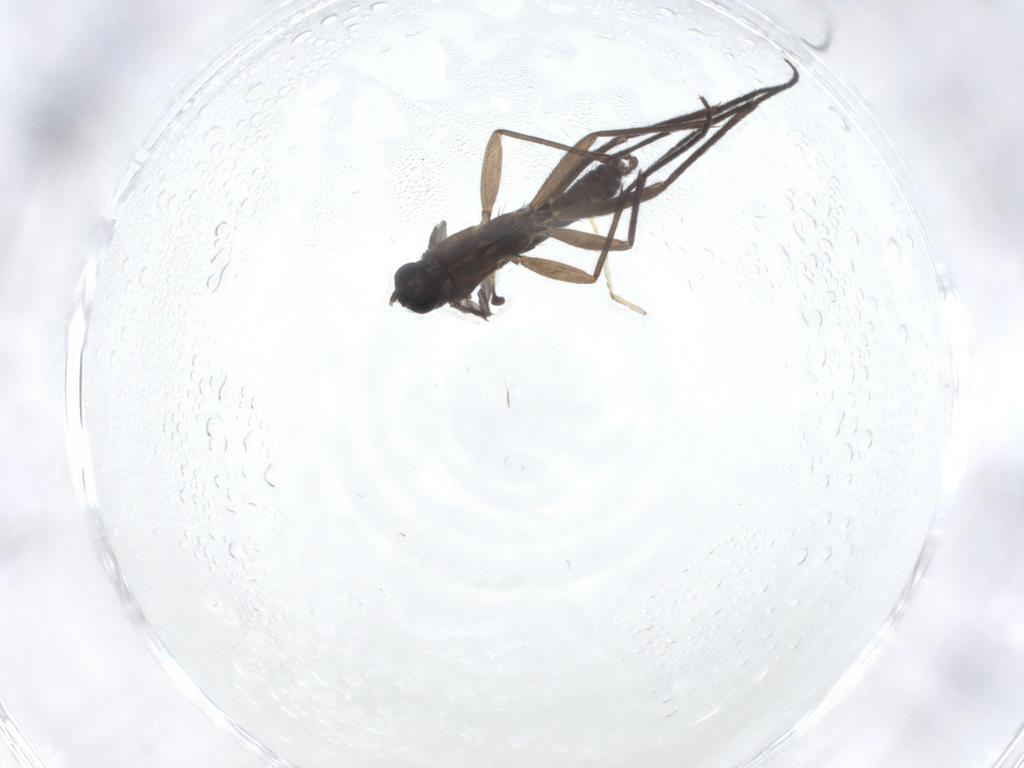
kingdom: Animalia
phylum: Arthropoda
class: Insecta
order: Diptera
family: Sciaridae
